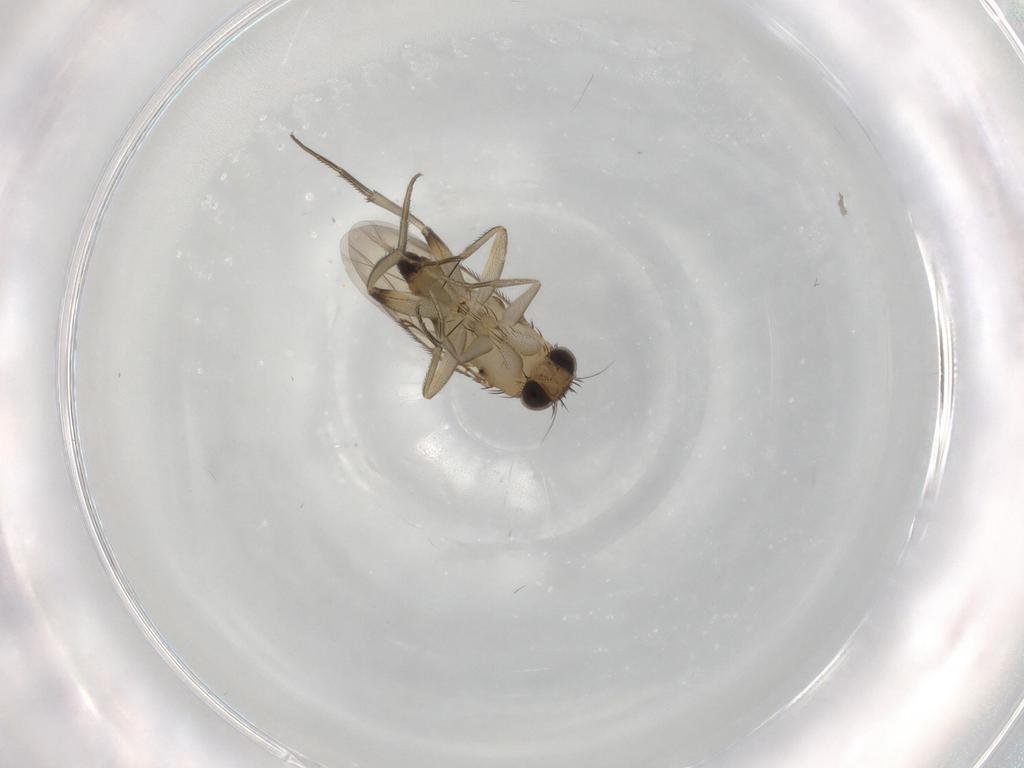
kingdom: Animalia
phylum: Arthropoda
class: Insecta
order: Diptera
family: Phoridae
